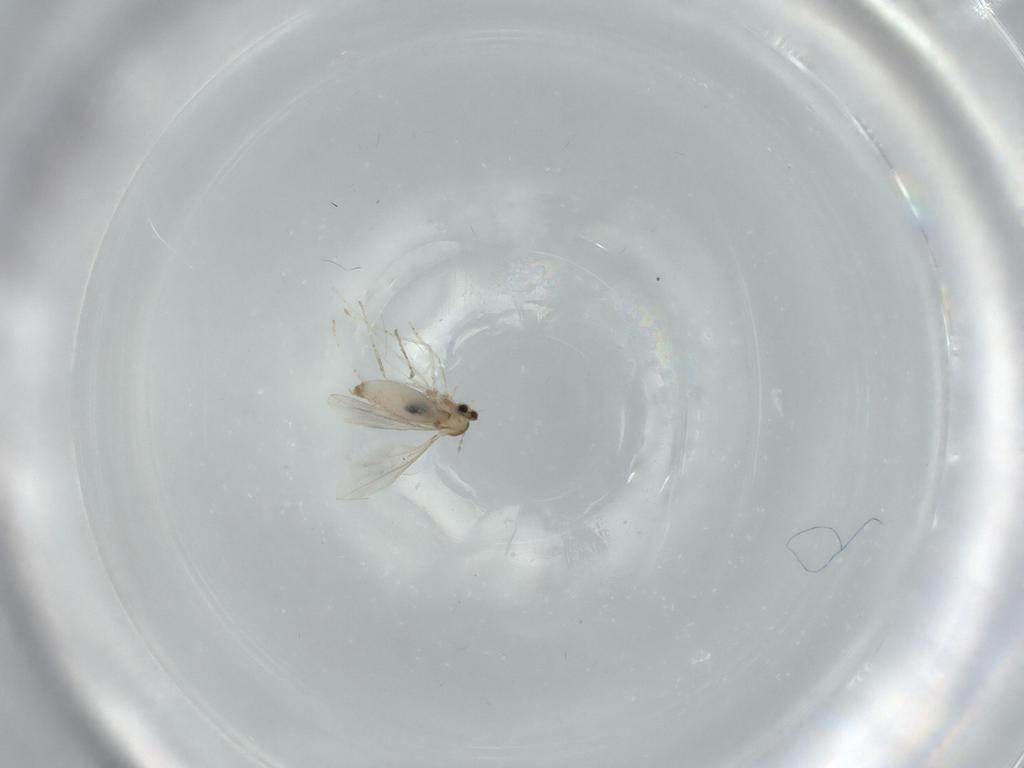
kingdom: Animalia
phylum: Arthropoda
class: Insecta
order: Diptera
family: Cecidomyiidae
